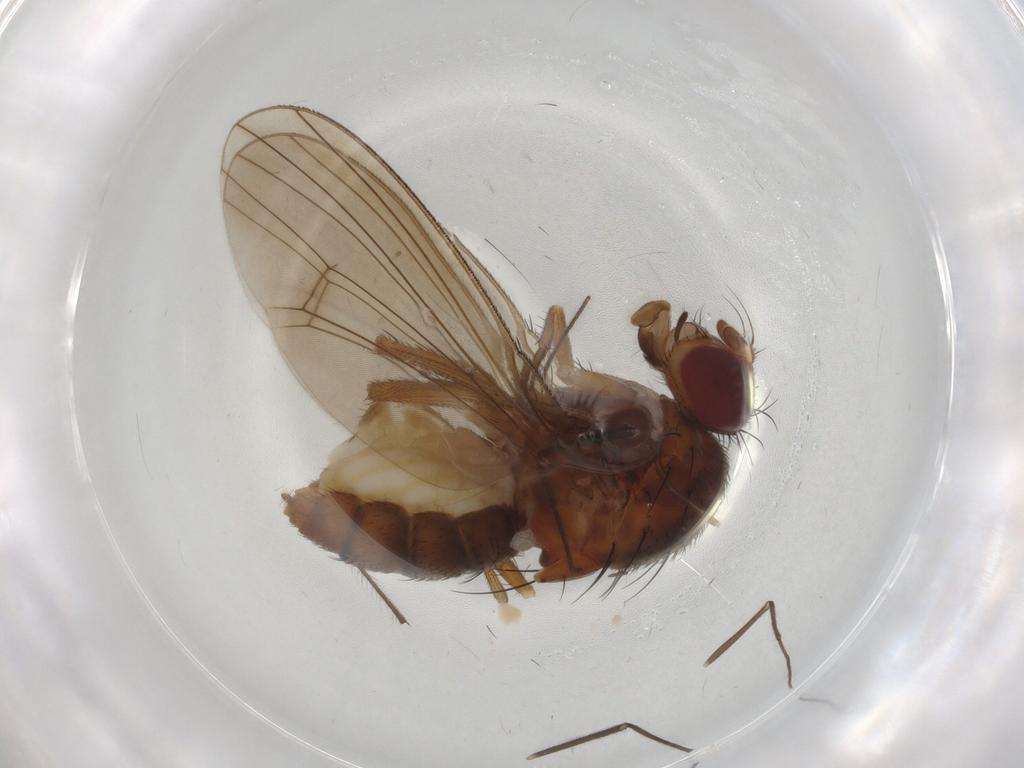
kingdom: Animalia
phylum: Arthropoda
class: Insecta
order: Diptera
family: Curtonotidae
